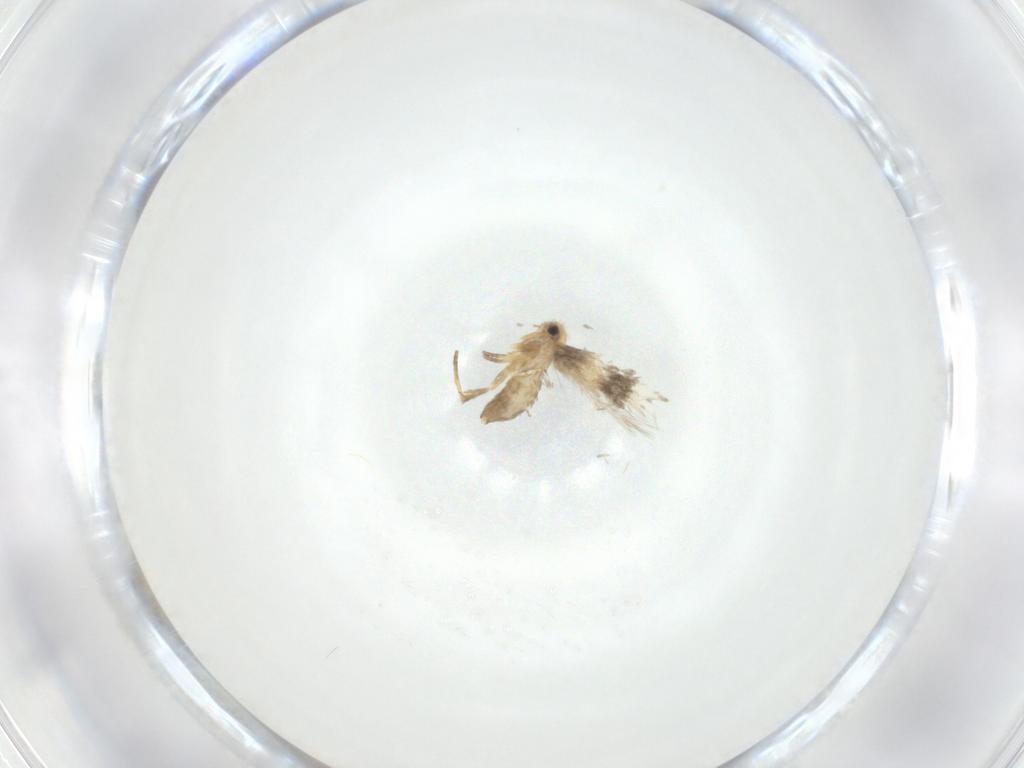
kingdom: Animalia
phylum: Arthropoda
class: Insecta
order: Lepidoptera
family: Nepticulidae
